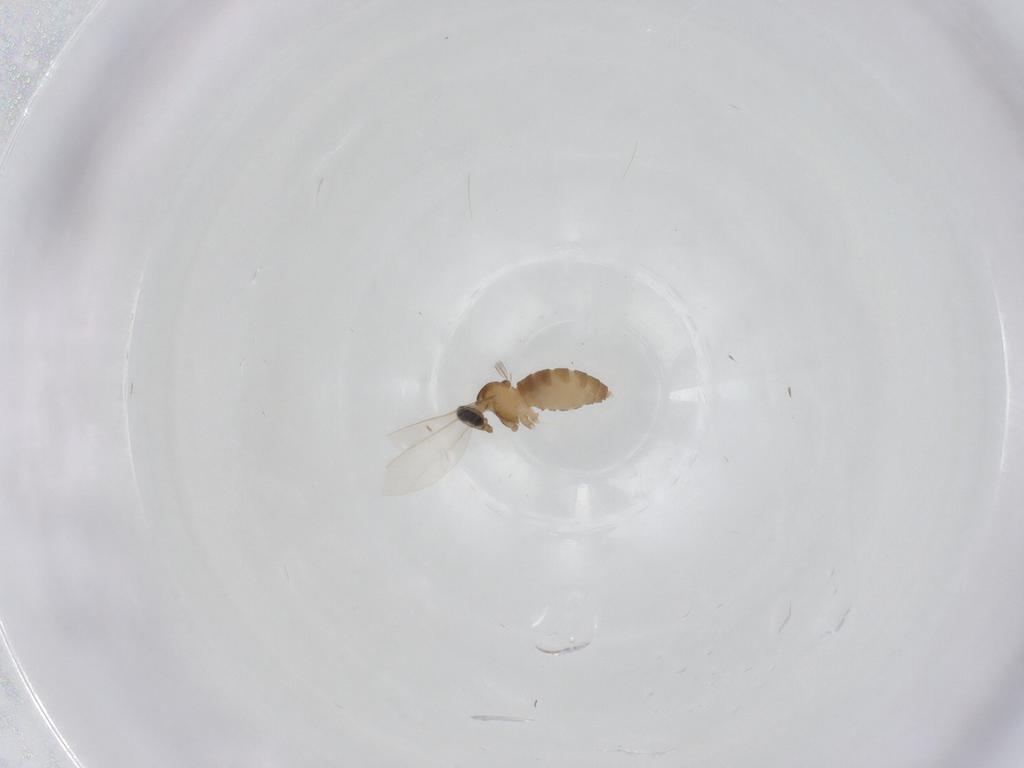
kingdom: Animalia
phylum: Arthropoda
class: Insecta
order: Diptera
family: Cecidomyiidae
